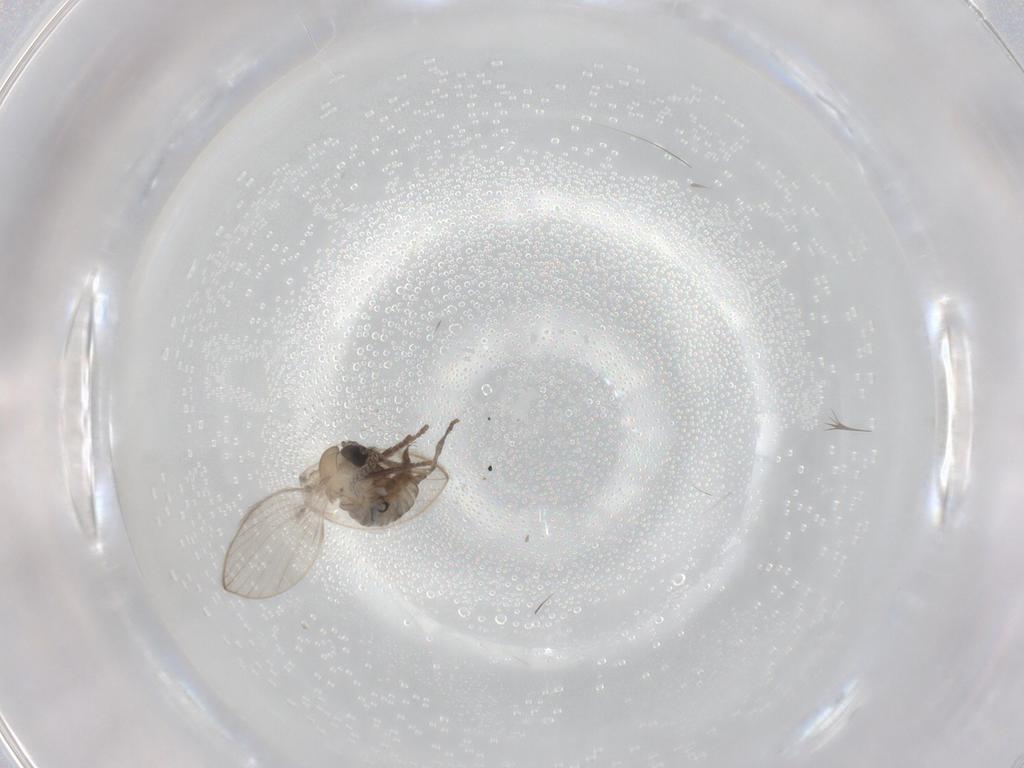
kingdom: Animalia
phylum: Arthropoda
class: Insecta
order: Diptera
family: Psychodidae
